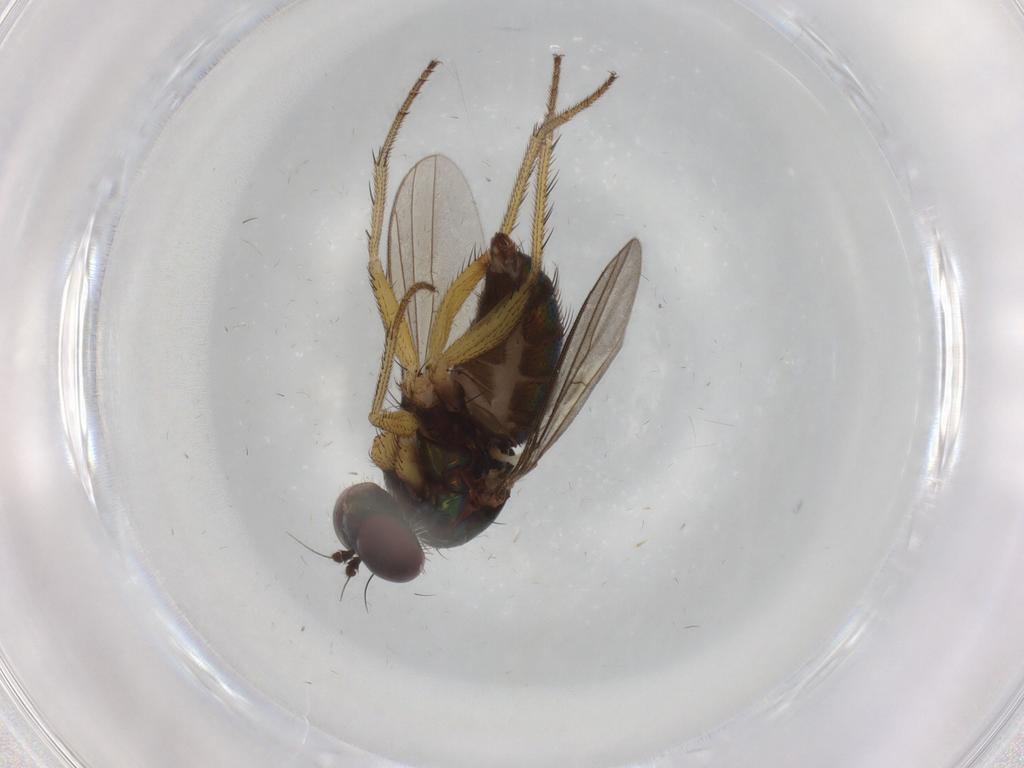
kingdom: Animalia
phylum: Arthropoda
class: Insecta
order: Diptera
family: Dolichopodidae
